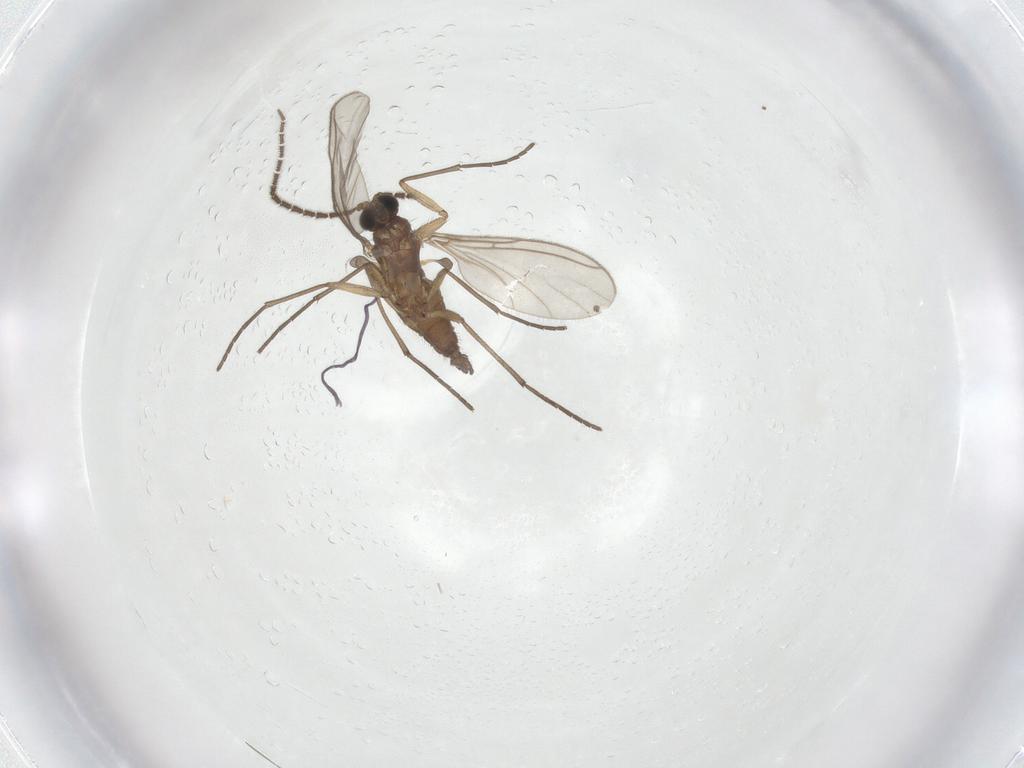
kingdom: Animalia
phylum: Arthropoda
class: Insecta
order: Diptera
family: Sciaridae
